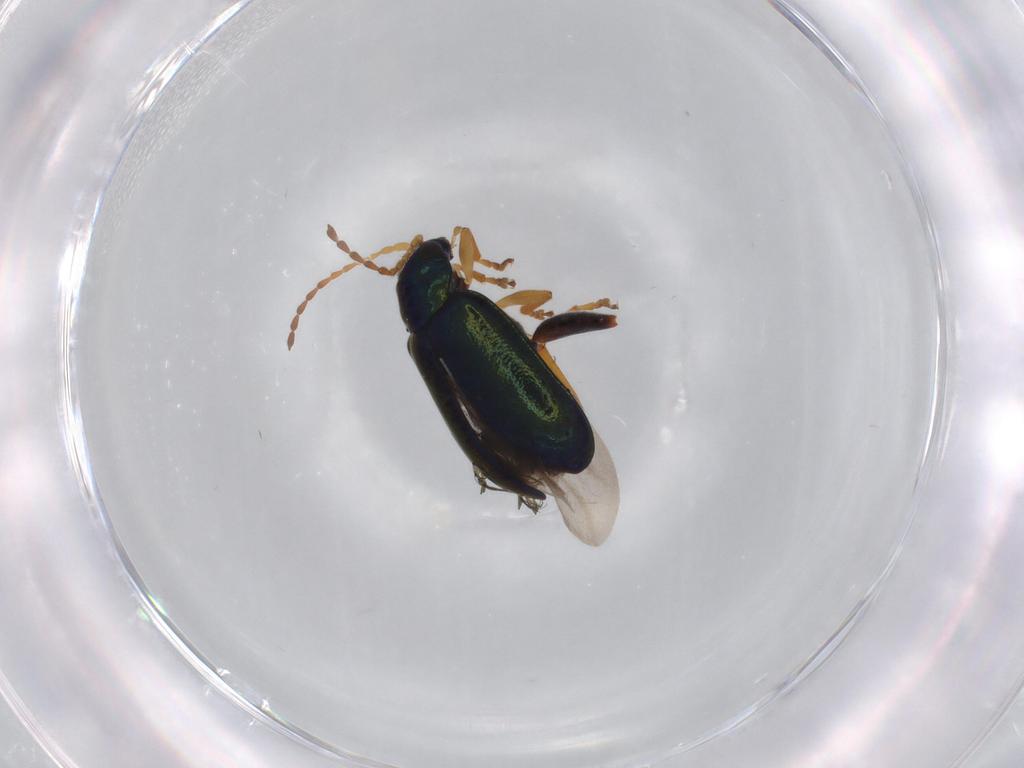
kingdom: Animalia
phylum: Arthropoda
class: Insecta
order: Coleoptera
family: Chrysomelidae
